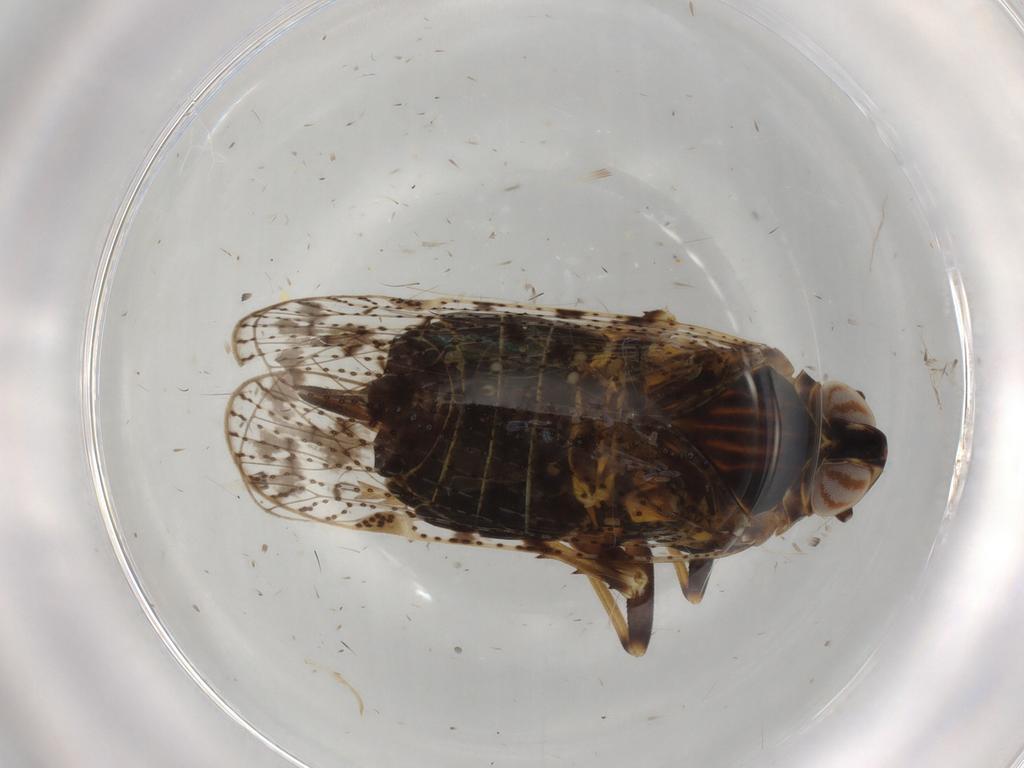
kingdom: Animalia
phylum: Arthropoda
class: Insecta
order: Hemiptera
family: Cixiidae
